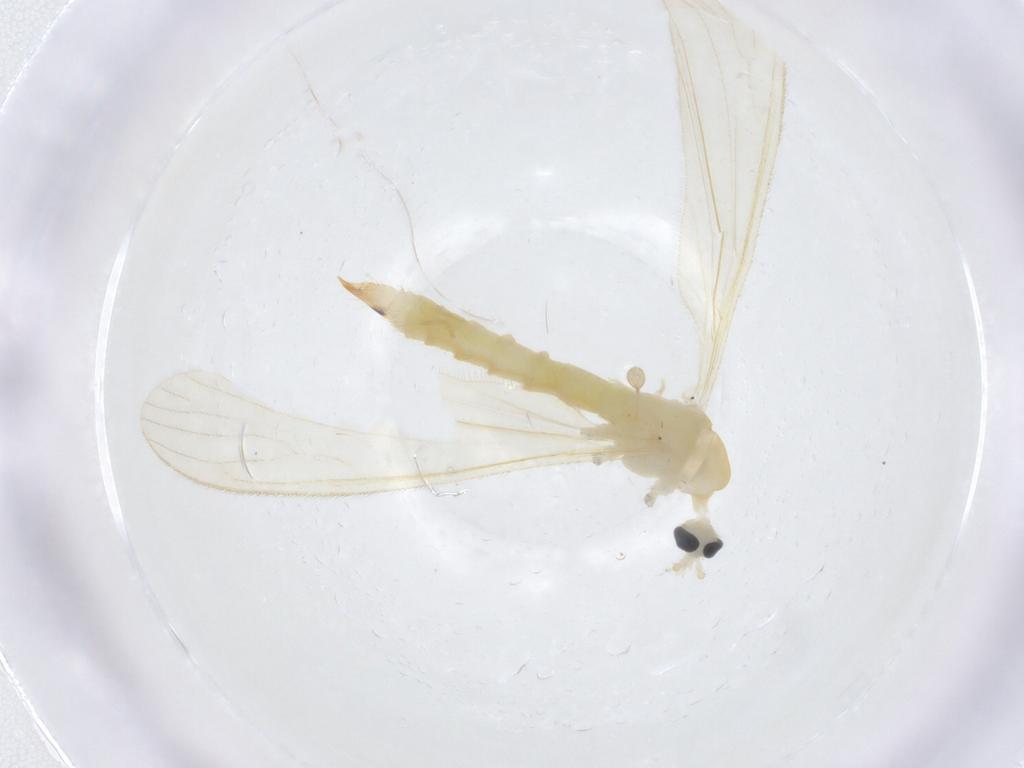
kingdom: Animalia
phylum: Arthropoda
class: Insecta
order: Diptera
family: Limoniidae
